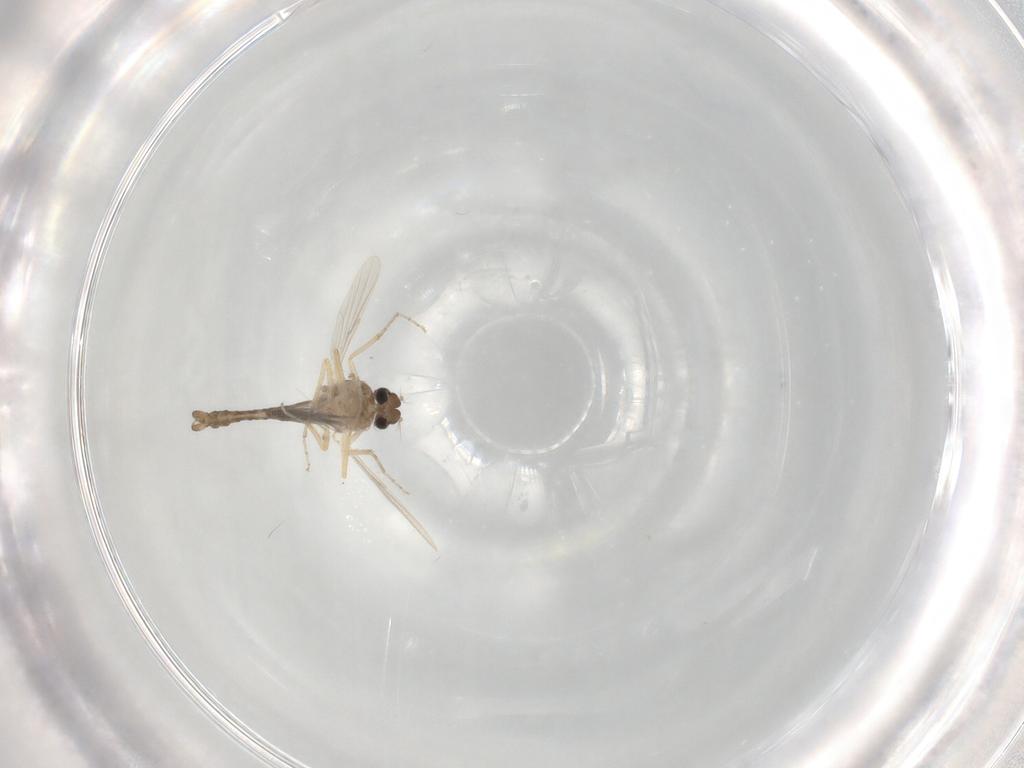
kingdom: Animalia
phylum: Arthropoda
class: Insecta
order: Diptera
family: Ceratopogonidae
